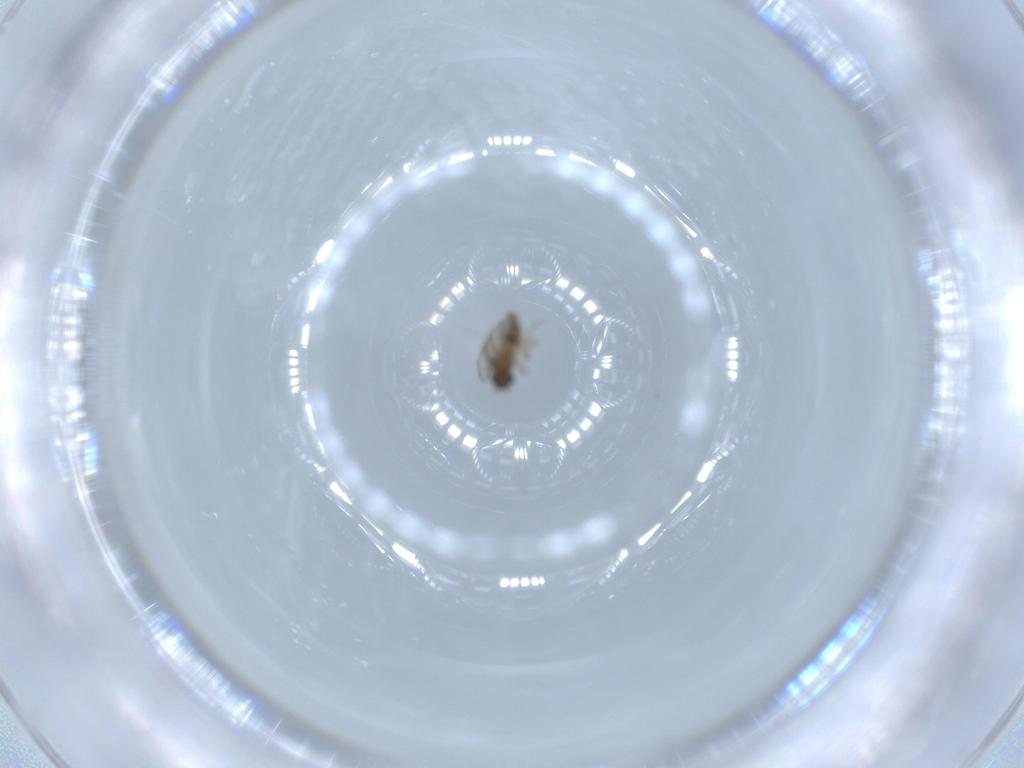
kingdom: Animalia
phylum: Arthropoda
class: Insecta
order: Diptera
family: Cecidomyiidae
